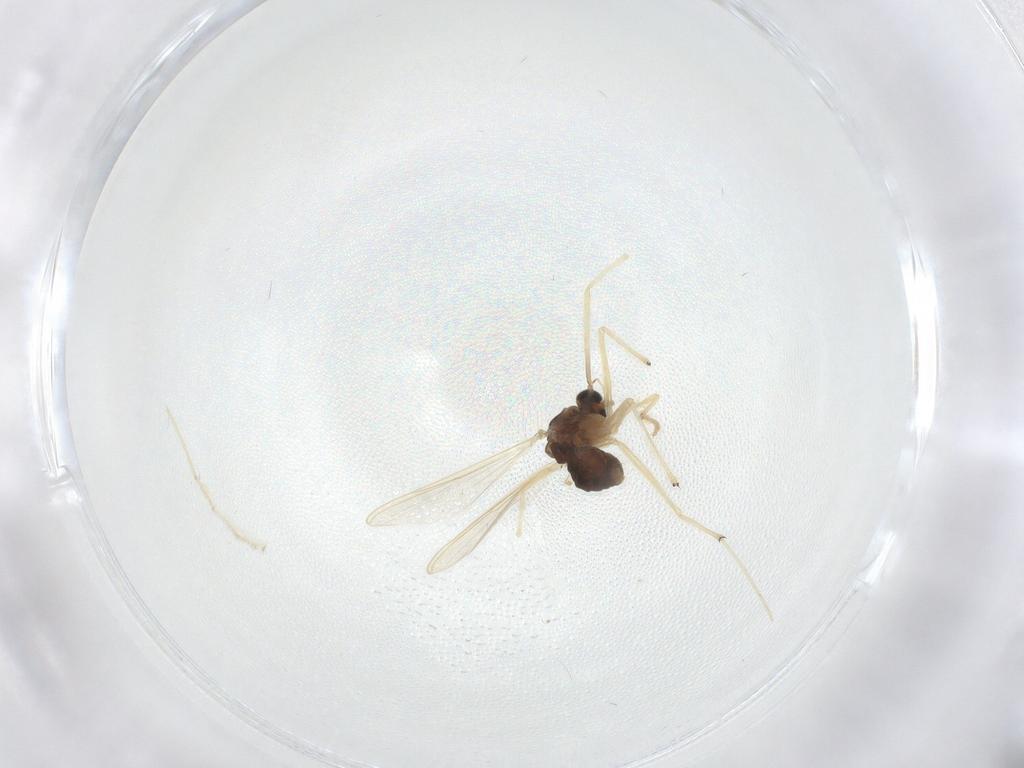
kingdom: Animalia
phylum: Arthropoda
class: Insecta
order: Diptera
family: Chironomidae
